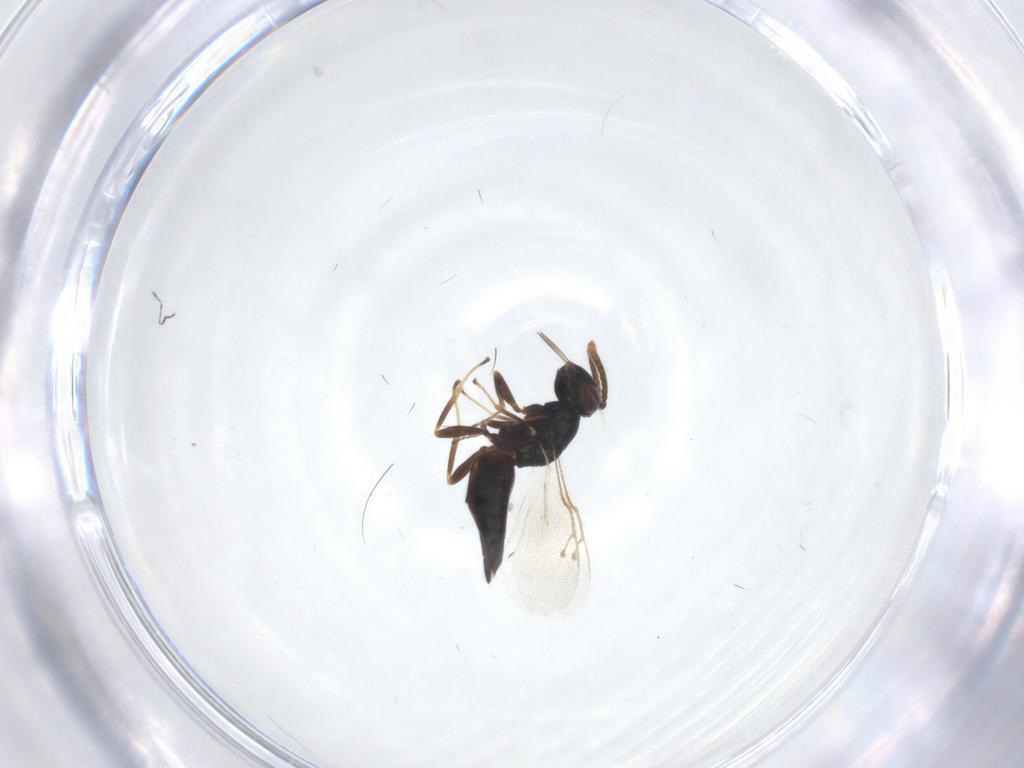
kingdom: Animalia
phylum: Arthropoda
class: Insecta
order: Hymenoptera
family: Pteromalidae
